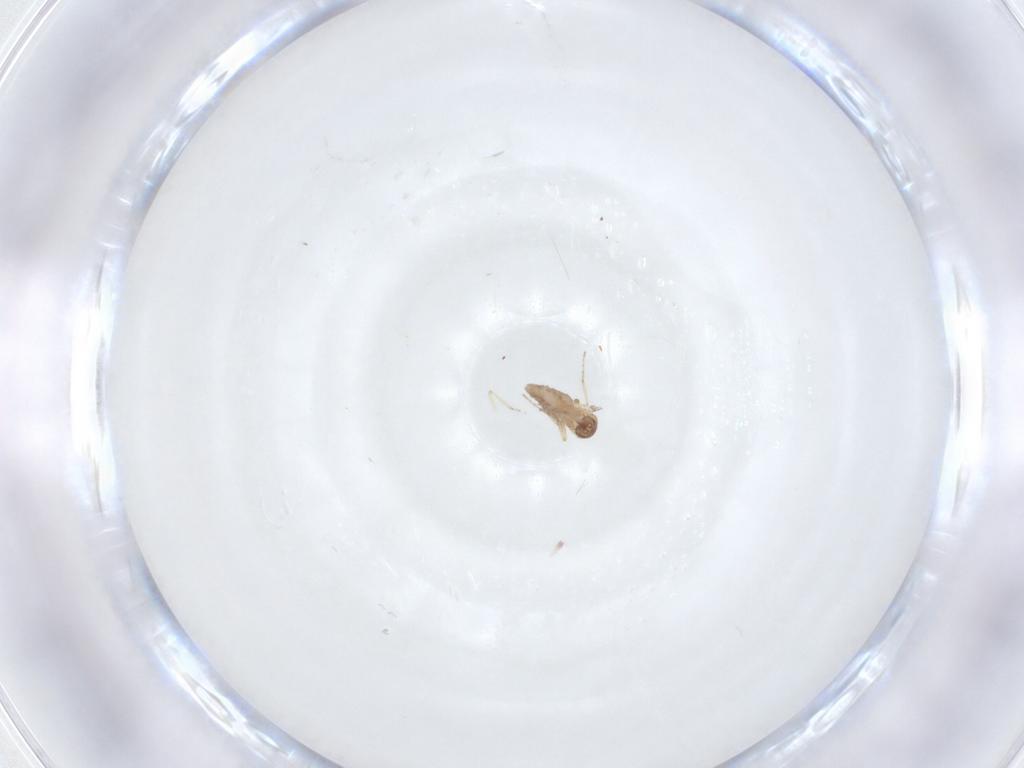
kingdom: Animalia
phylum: Arthropoda
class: Insecta
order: Diptera
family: Ceratopogonidae
